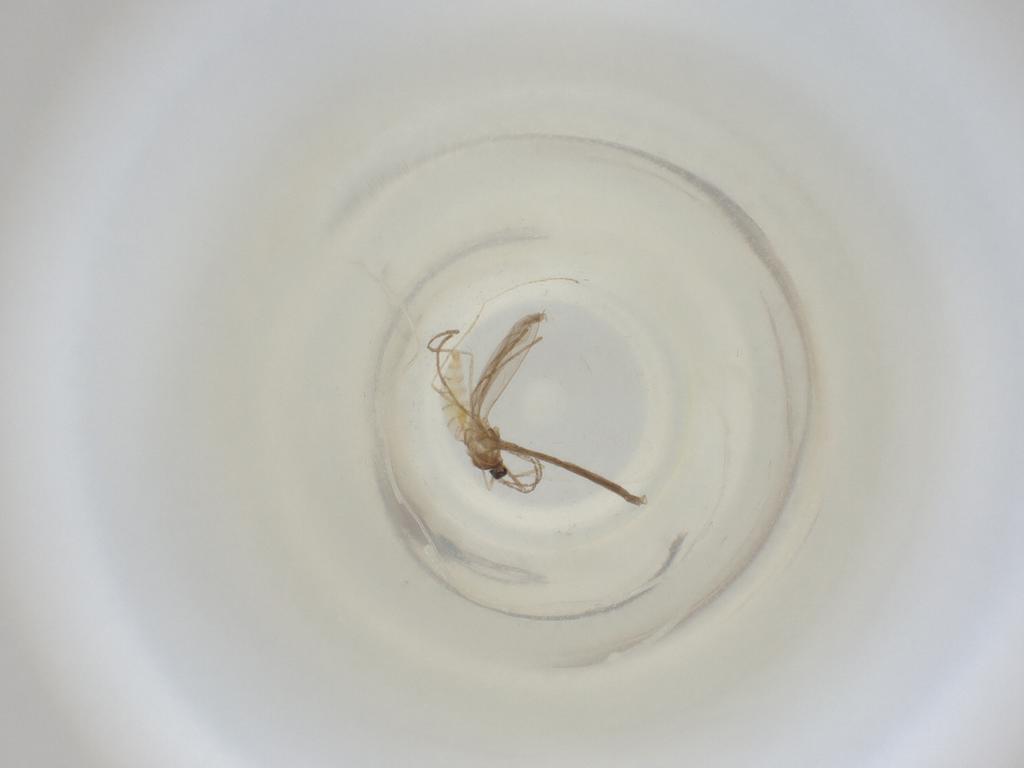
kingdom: Animalia
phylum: Arthropoda
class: Insecta
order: Diptera
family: Cecidomyiidae
